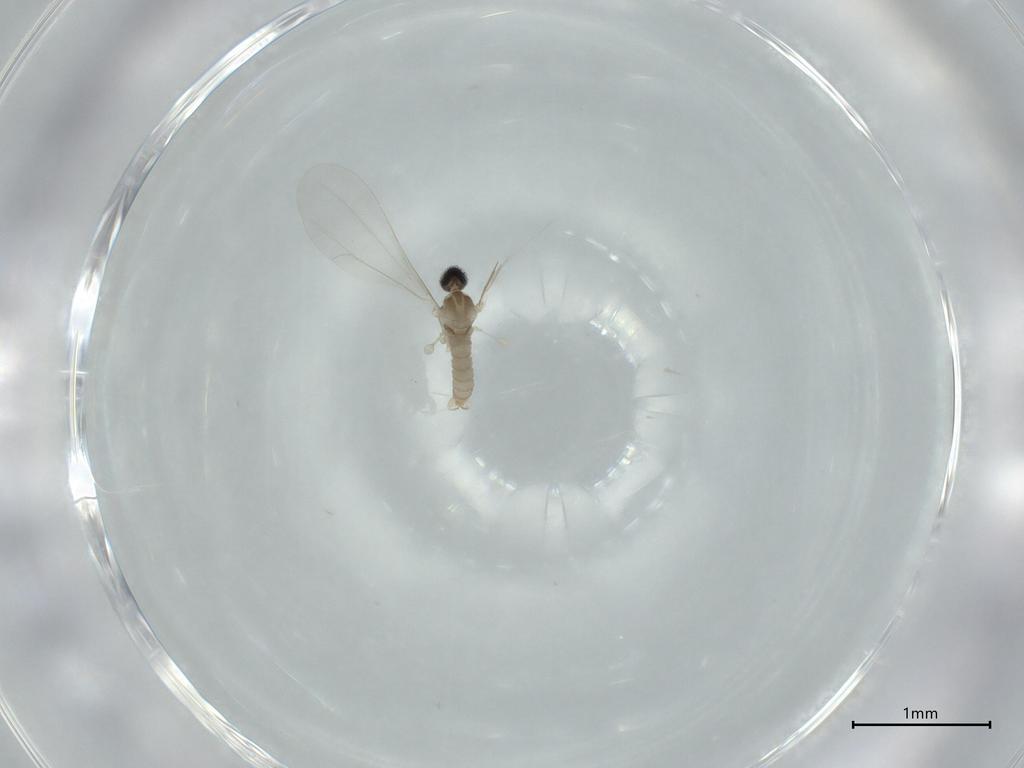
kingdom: Animalia
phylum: Arthropoda
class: Insecta
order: Diptera
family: Cecidomyiidae
